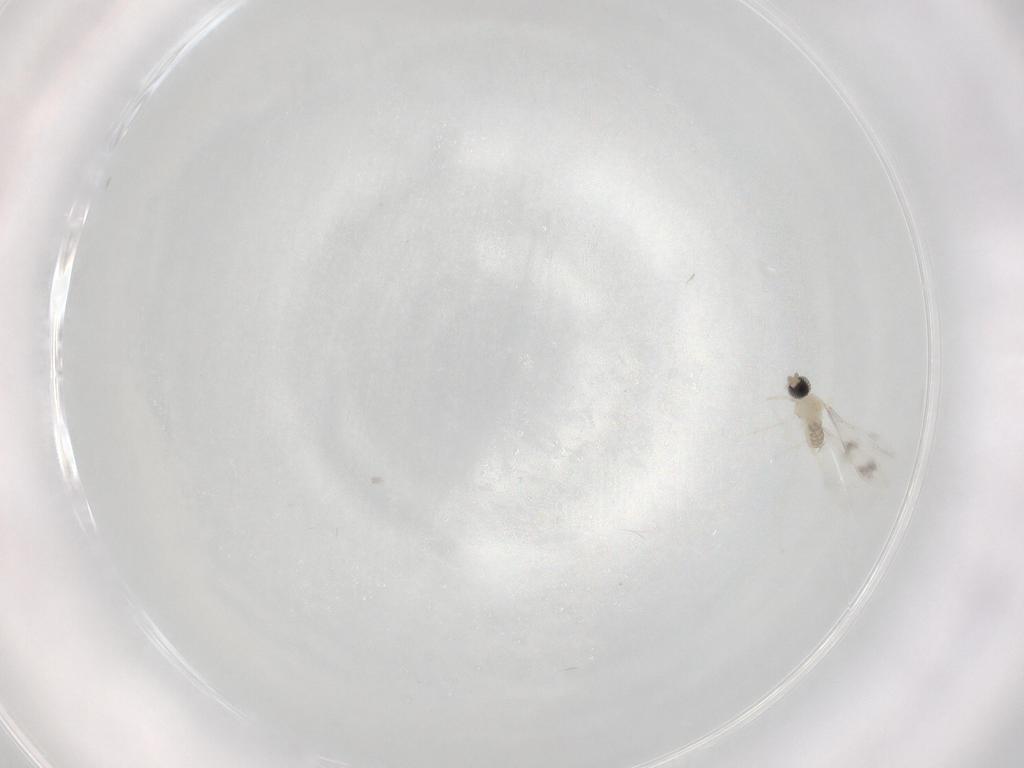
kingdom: Animalia
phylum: Arthropoda
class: Insecta
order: Diptera
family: Cecidomyiidae
